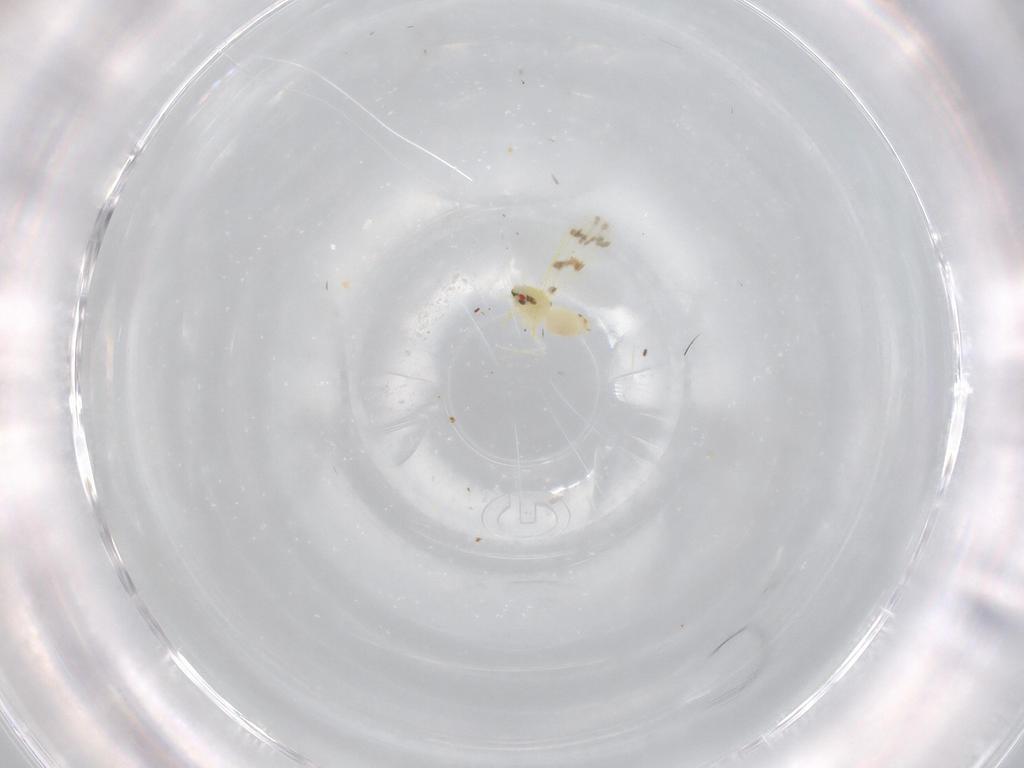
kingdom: Animalia
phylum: Arthropoda
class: Insecta
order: Hemiptera
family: Aleyrodidae
